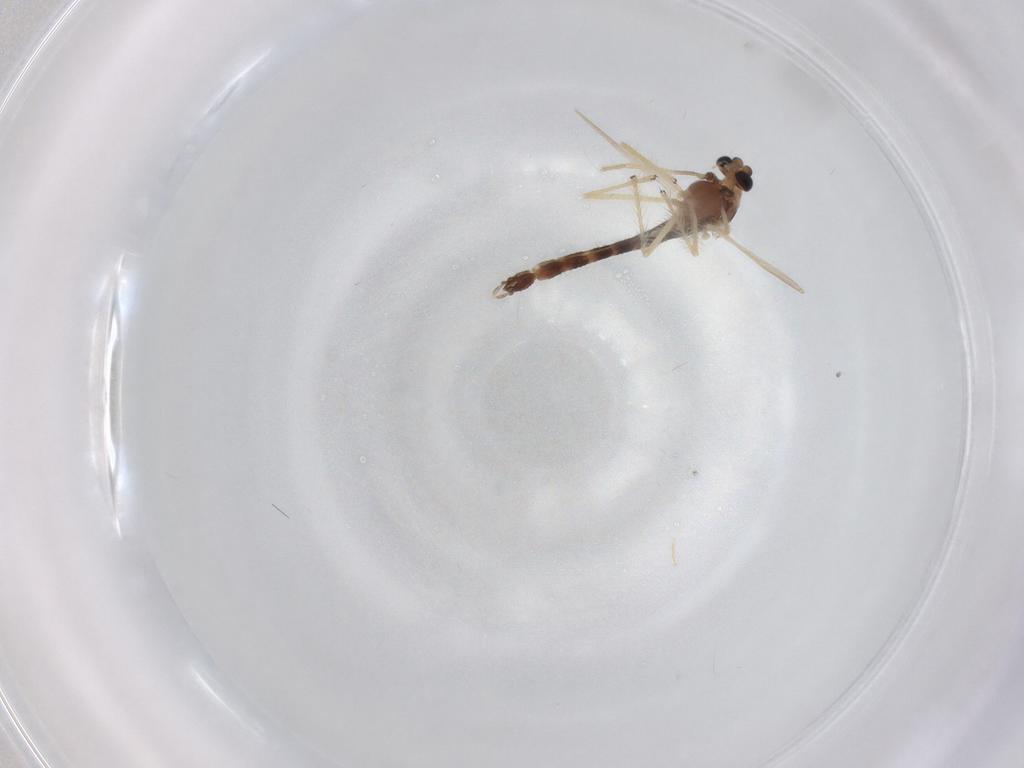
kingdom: Animalia
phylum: Arthropoda
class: Insecta
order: Diptera
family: Chironomidae
